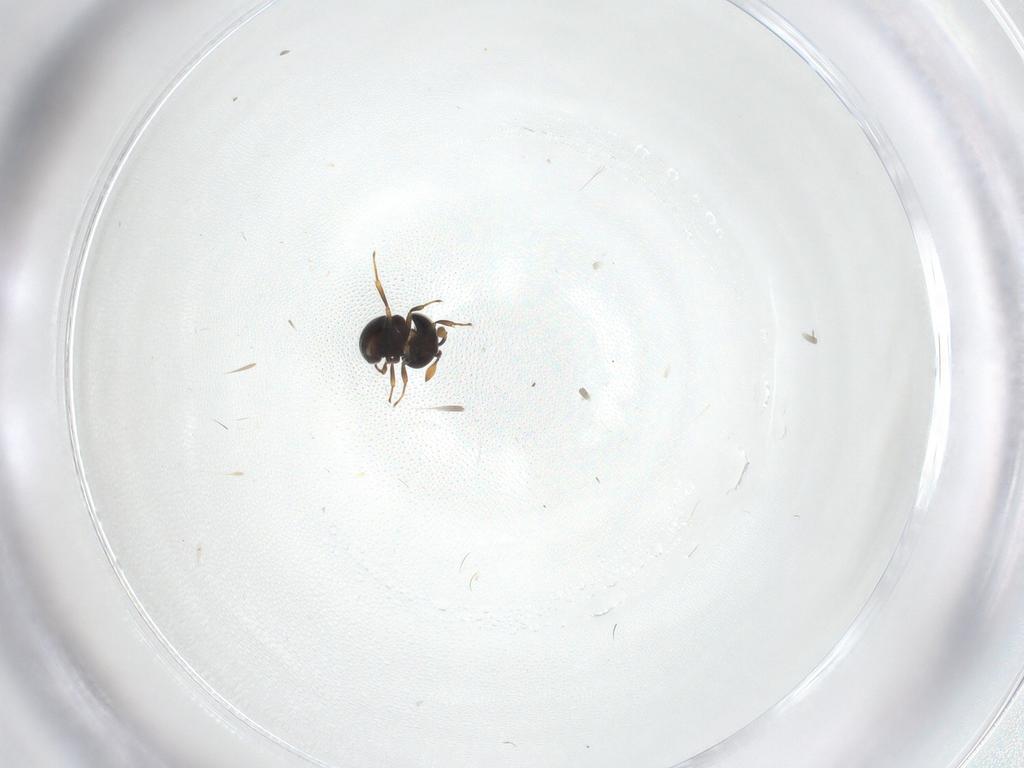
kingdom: Animalia
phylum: Arthropoda
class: Insecta
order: Hymenoptera
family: Scelionidae
